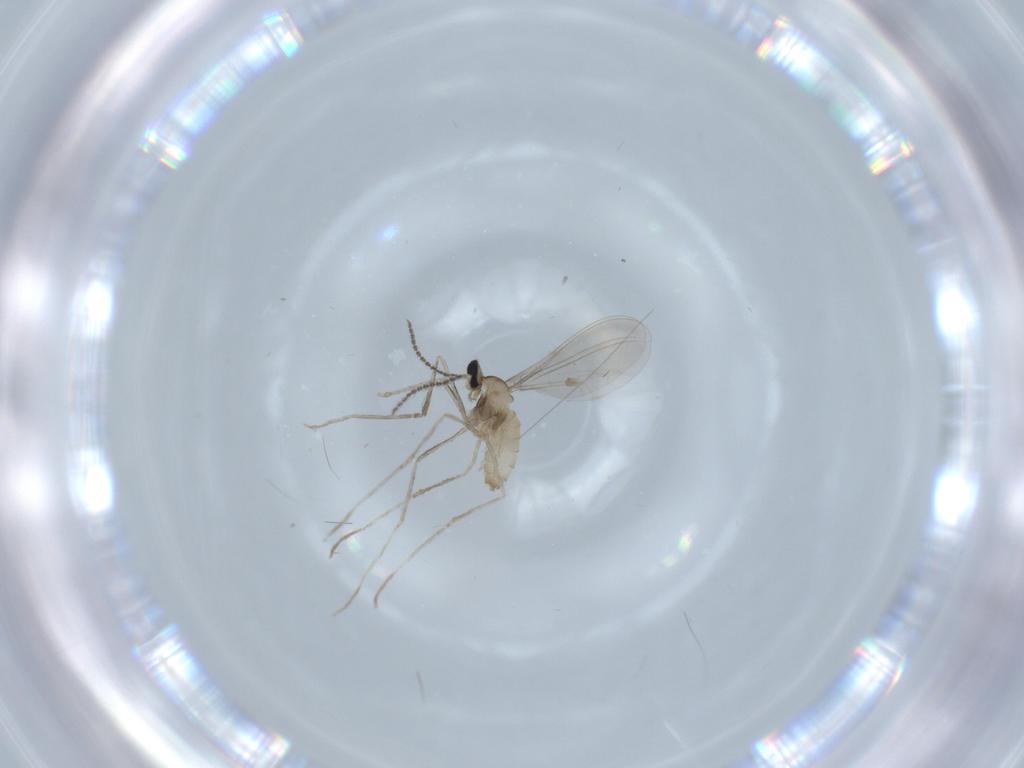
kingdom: Animalia
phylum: Arthropoda
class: Insecta
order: Diptera
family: Cecidomyiidae
